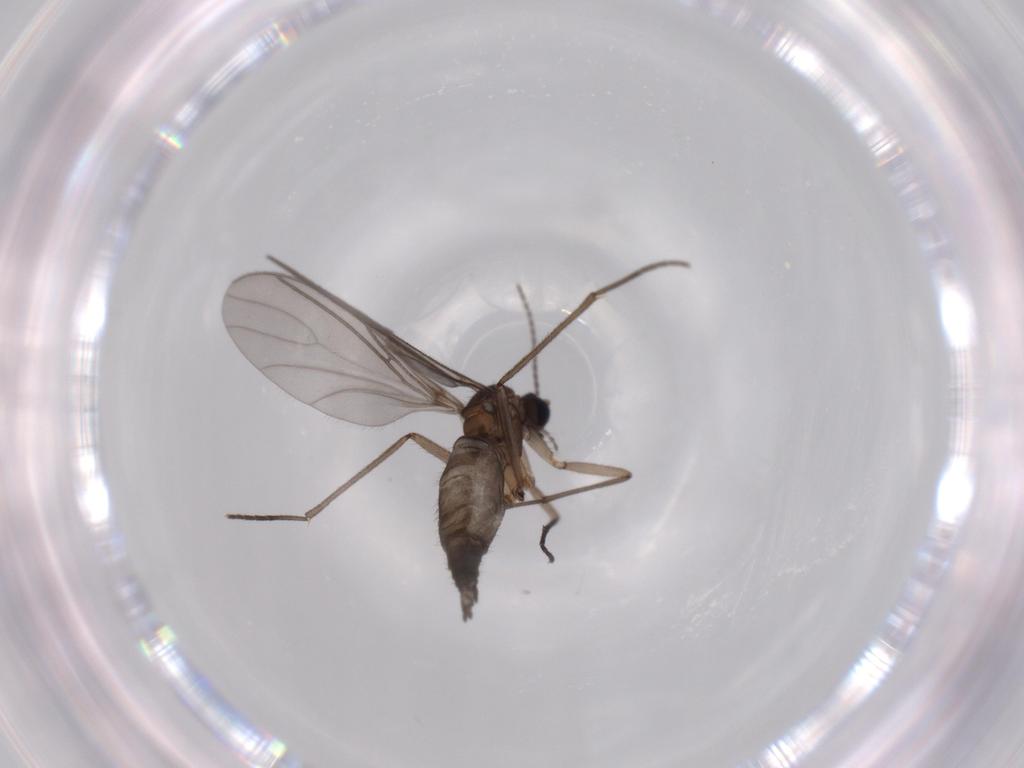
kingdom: Animalia
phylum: Arthropoda
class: Insecta
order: Diptera
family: Sciaridae
